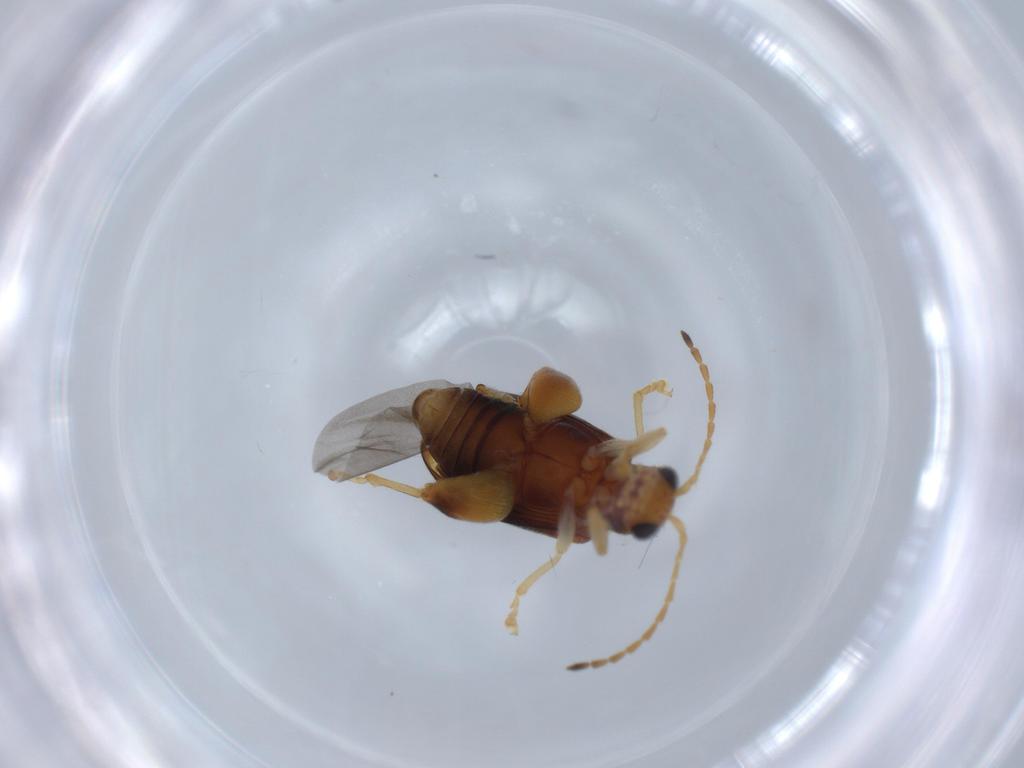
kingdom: Animalia
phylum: Arthropoda
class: Insecta
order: Coleoptera
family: Chrysomelidae
